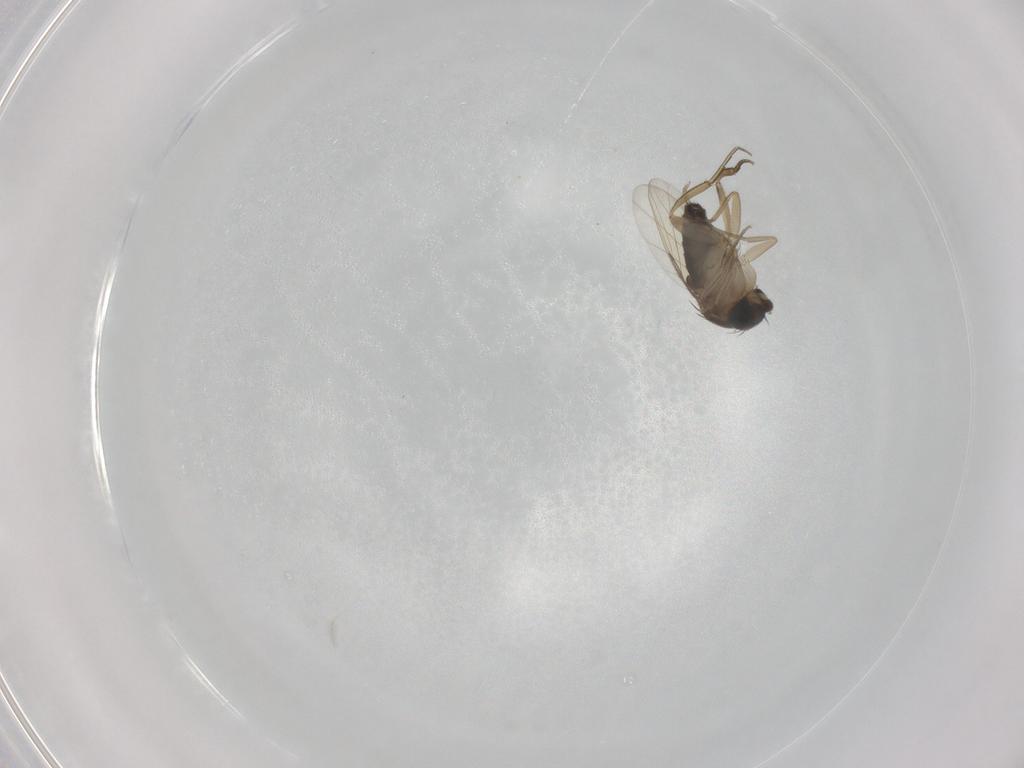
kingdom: Animalia
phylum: Arthropoda
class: Insecta
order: Diptera
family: Phoridae
